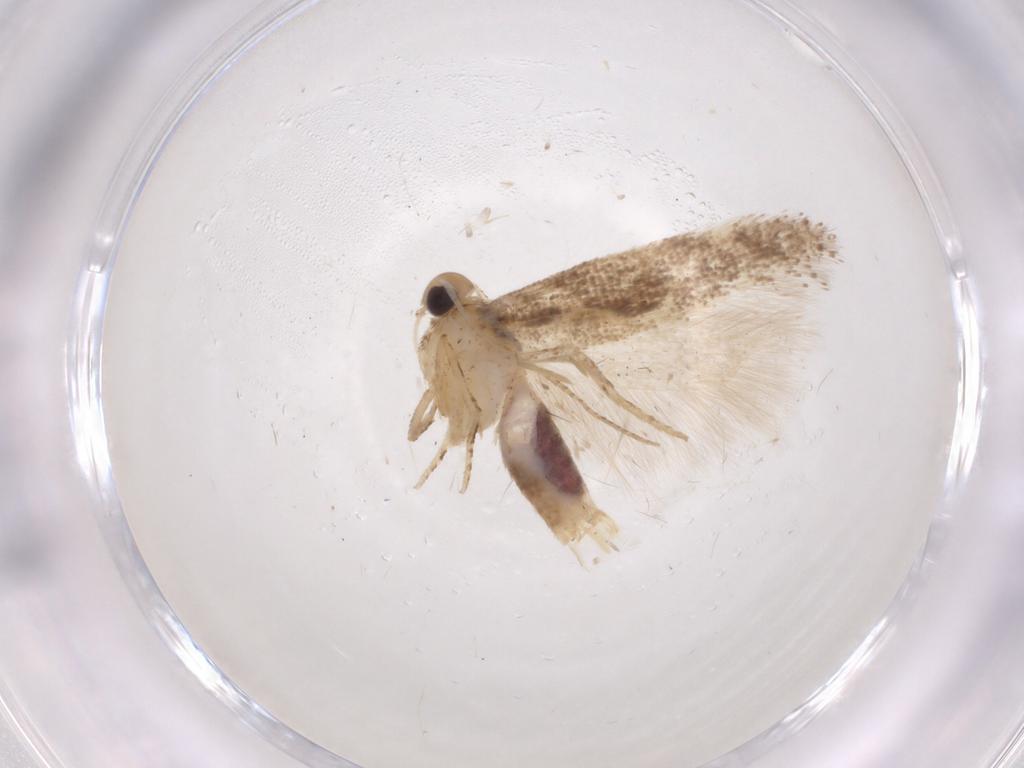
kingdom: Animalia
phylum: Arthropoda
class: Insecta
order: Lepidoptera
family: Gelechiidae
